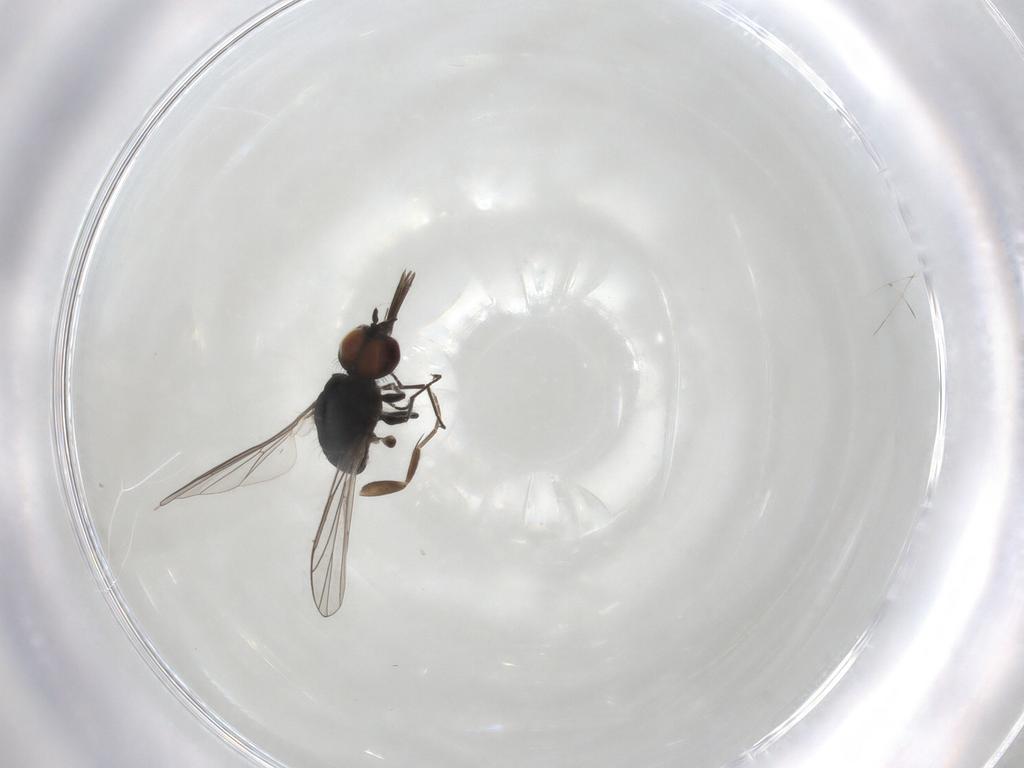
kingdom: Animalia
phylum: Arthropoda
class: Insecta
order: Diptera
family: Bombyliidae
